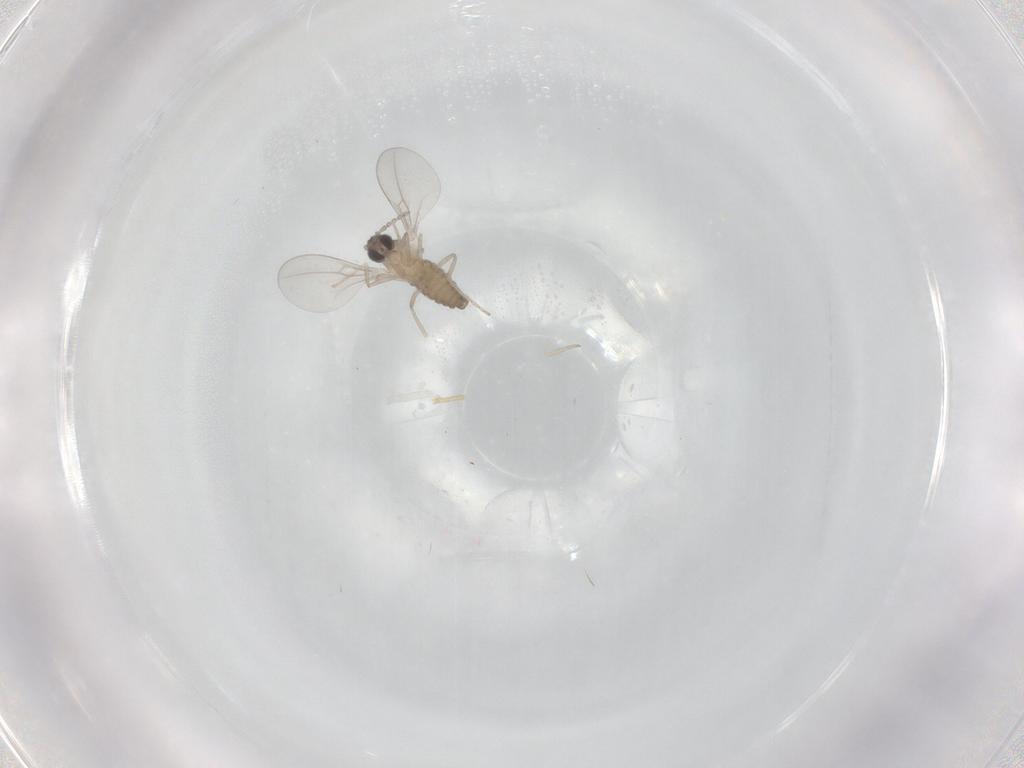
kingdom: Animalia
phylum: Arthropoda
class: Insecta
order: Diptera
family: Cecidomyiidae
